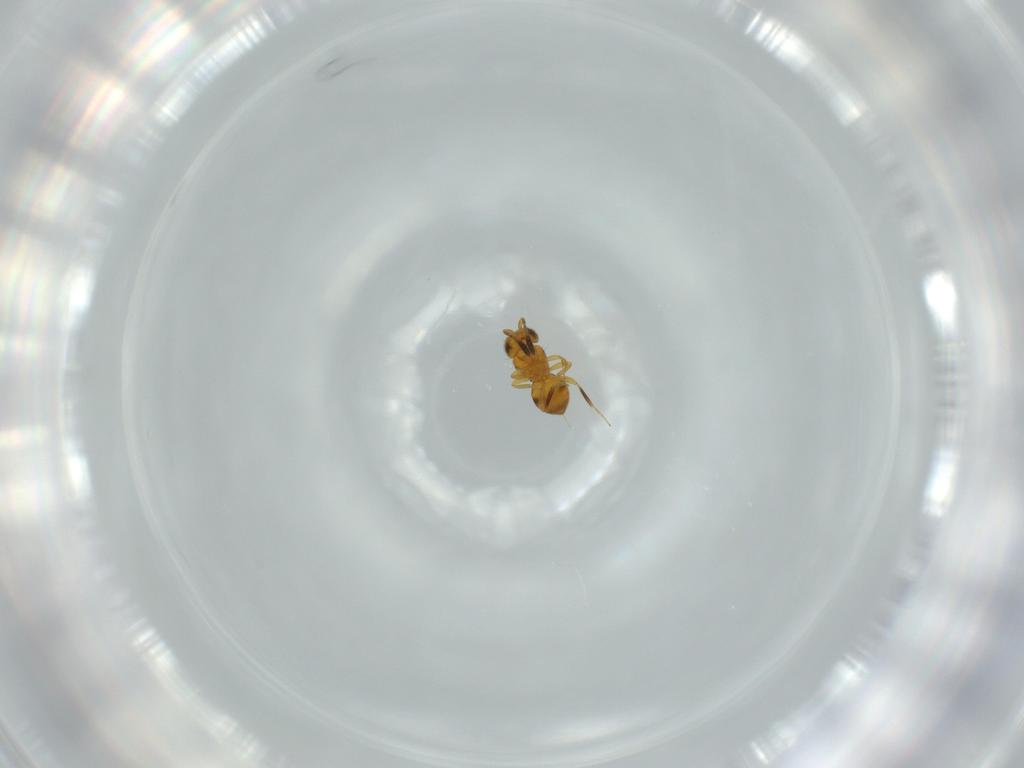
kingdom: Animalia
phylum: Arthropoda
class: Insecta
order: Hymenoptera
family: Scelionidae
